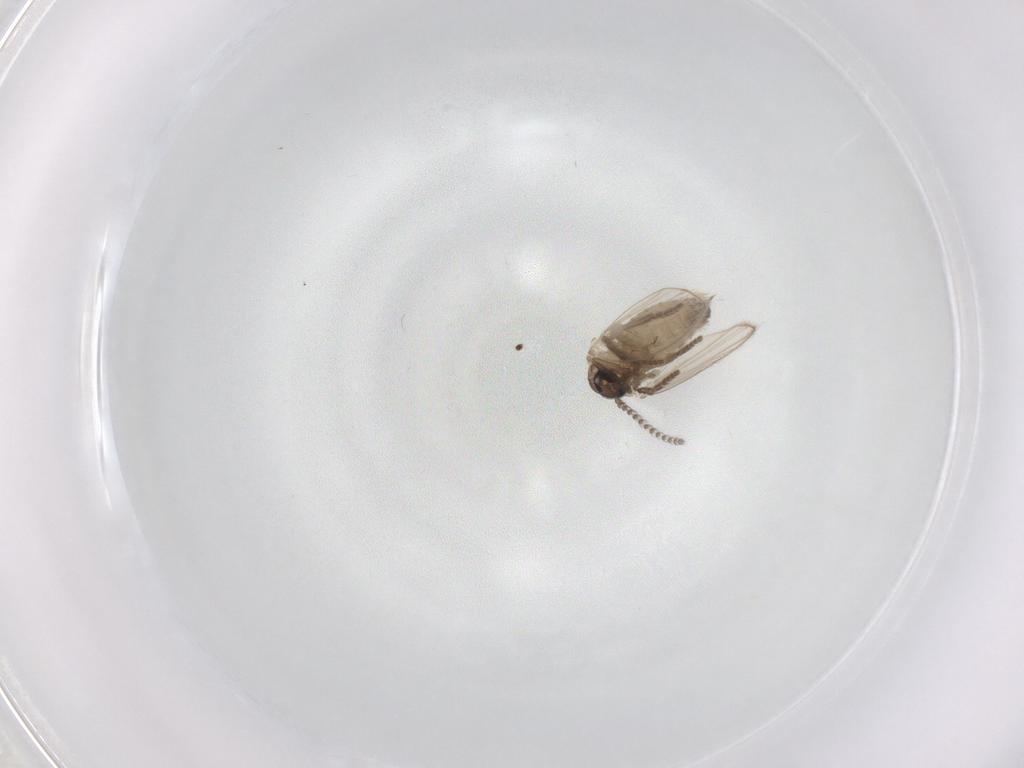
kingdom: Animalia
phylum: Arthropoda
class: Insecta
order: Diptera
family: Psychodidae
